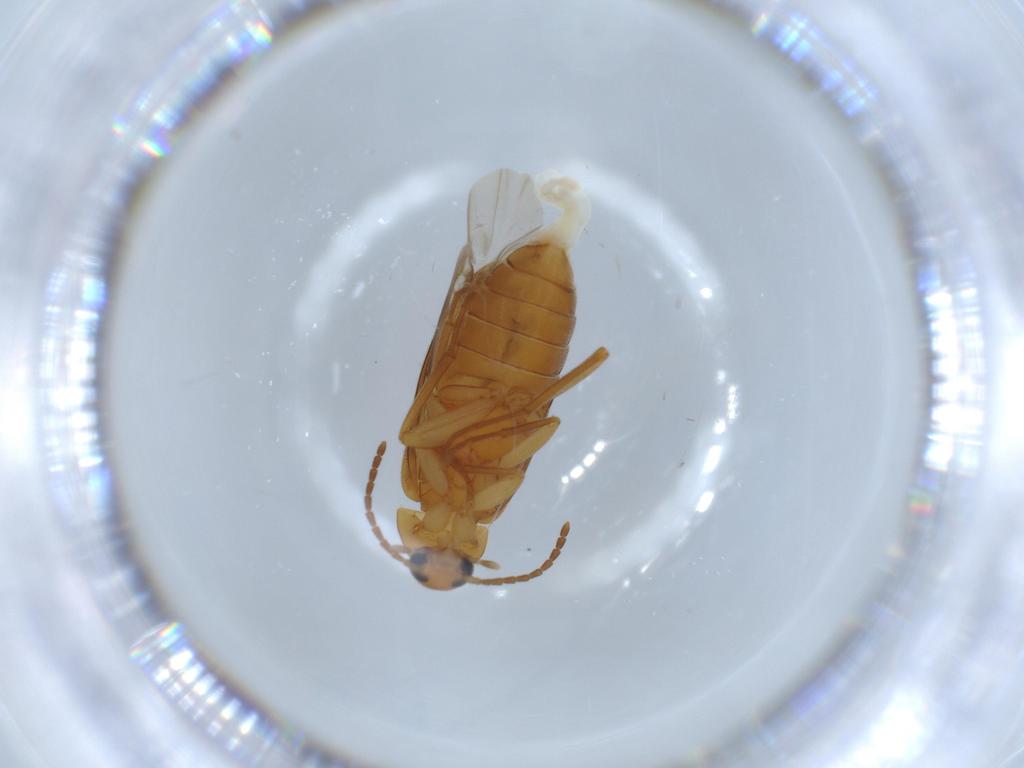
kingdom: Animalia
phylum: Arthropoda
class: Insecta
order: Coleoptera
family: Scraptiidae
